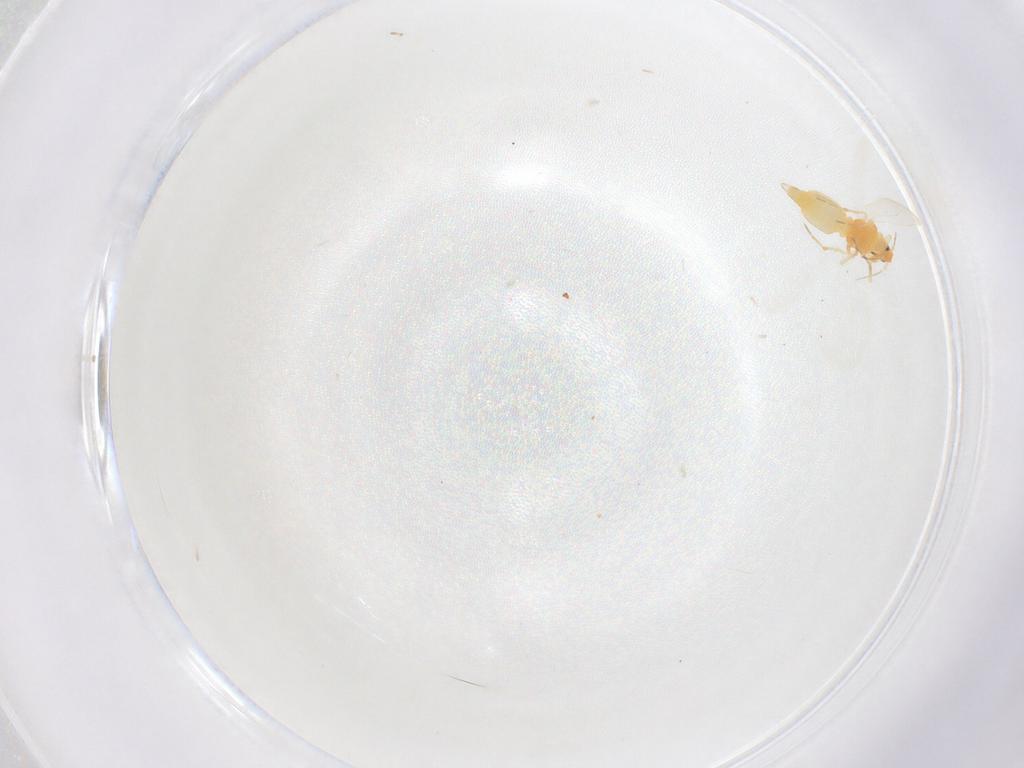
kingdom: Animalia
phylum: Arthropoda
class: Insecta
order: Hemiptera
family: Aleyrodidae
